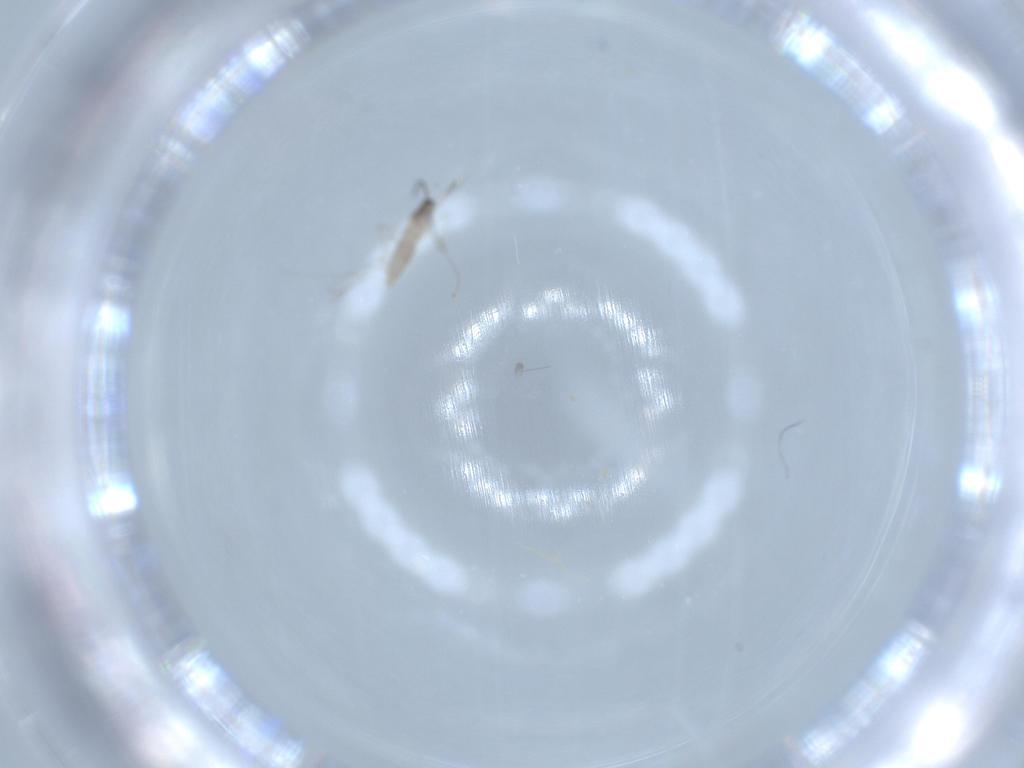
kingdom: Animalia
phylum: Arthropoda
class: Insecta
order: Diptera
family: Cecidomyiidae
